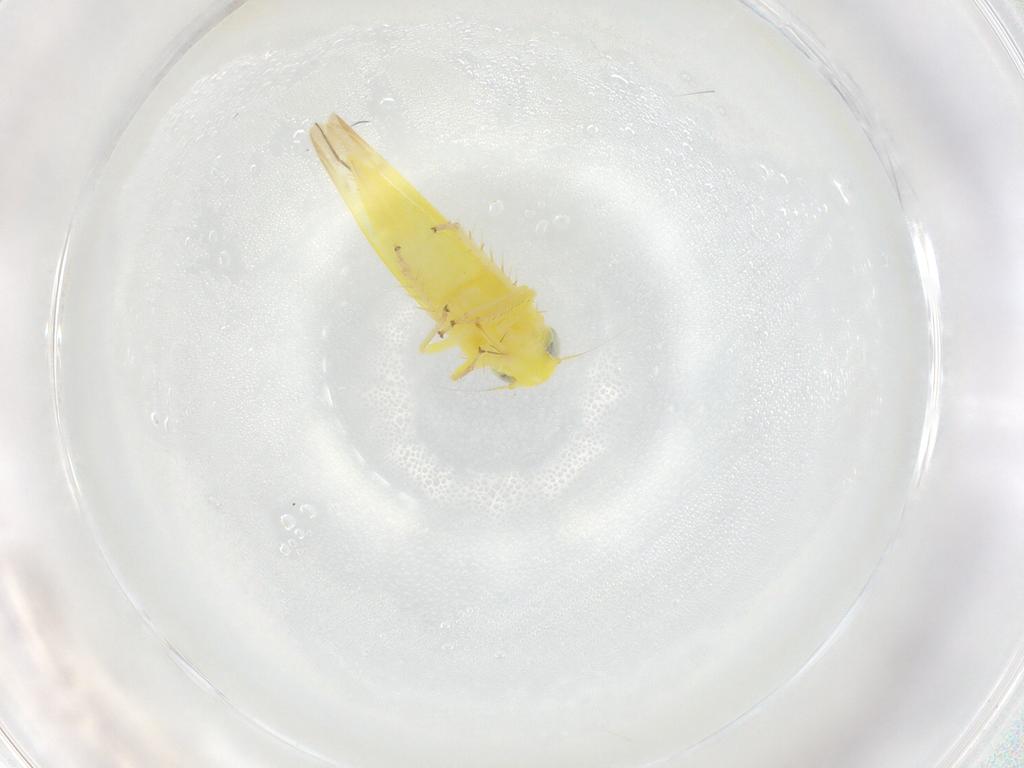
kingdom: Animalia
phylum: Arthropoda
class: Insecta
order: Hemiptera
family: Cicadellidae
